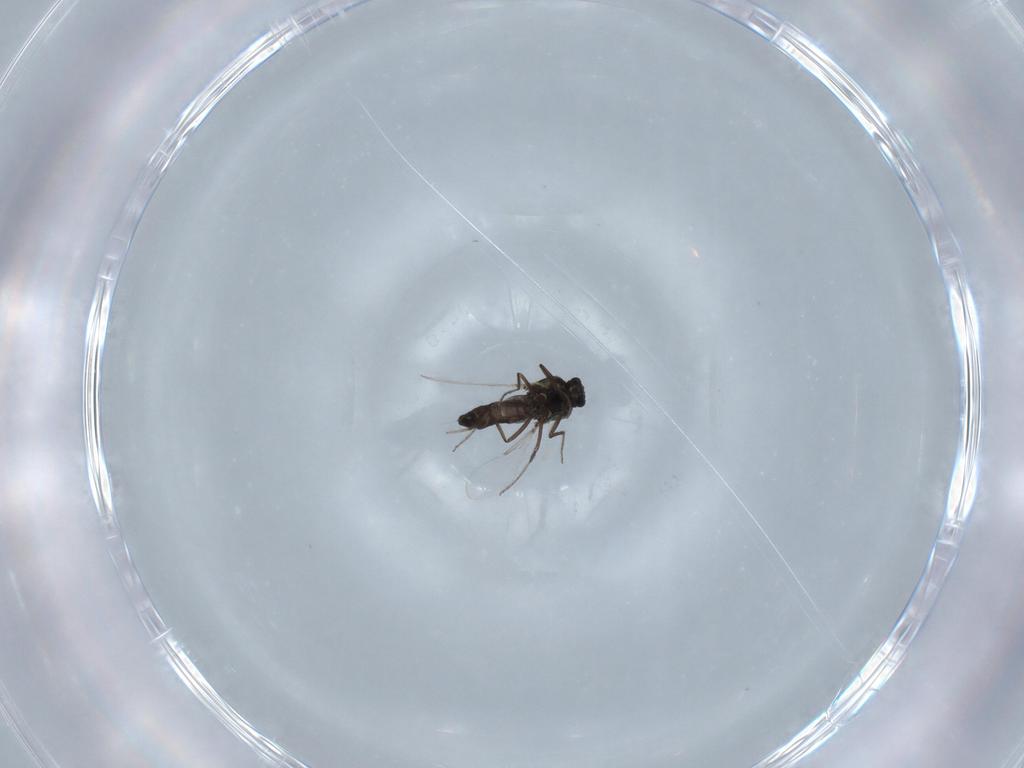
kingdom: Animalia
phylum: Arthropoda
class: Insecta
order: Diptera
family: Ceratopogonidae
